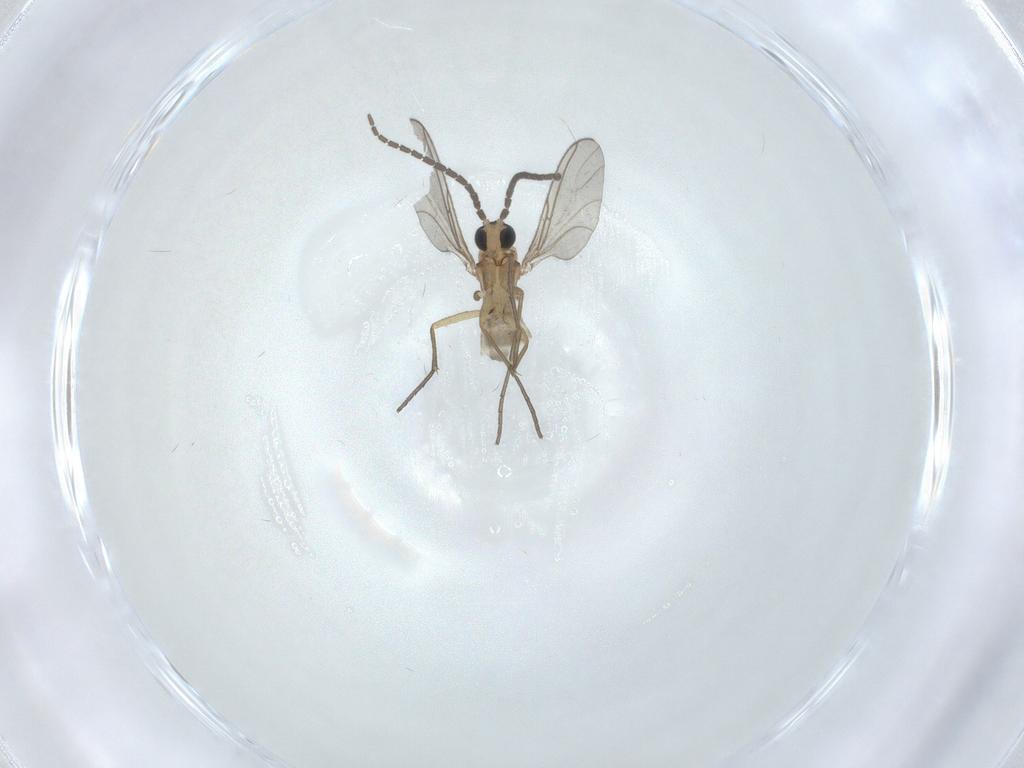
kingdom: Animalia
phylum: Arthropoda
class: Insecta
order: Diptera
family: Sciaridae
